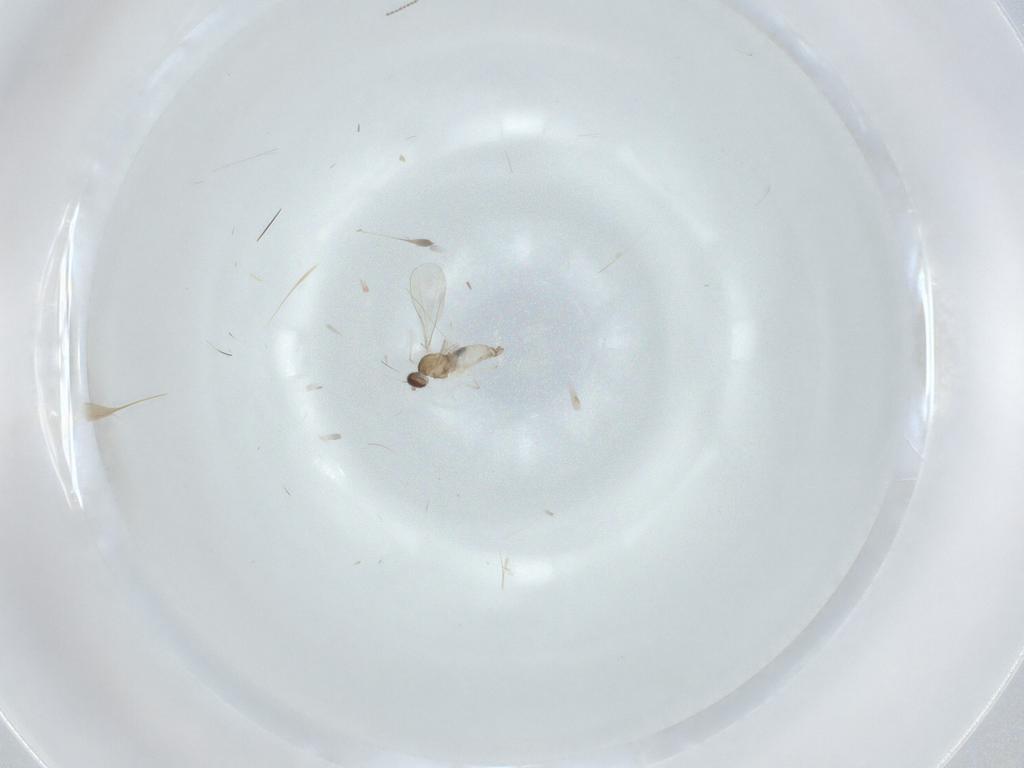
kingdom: Animalia
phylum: Arthropoda
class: Insecta
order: Diptera
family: Cecidomyiidae
